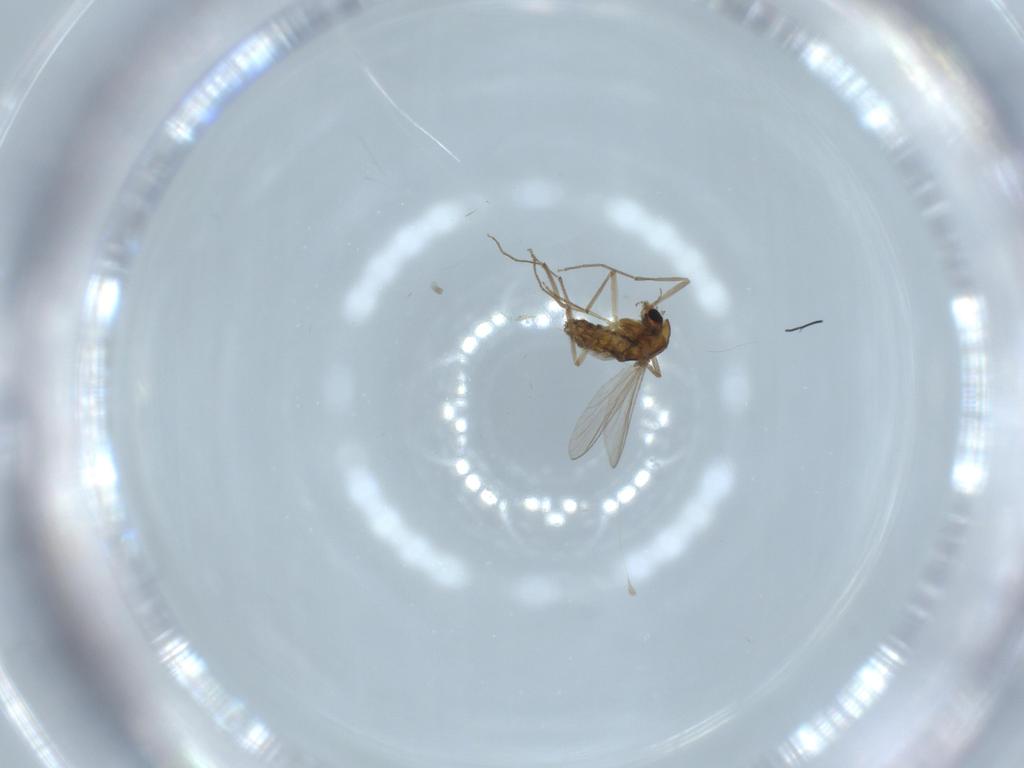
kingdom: Animalia
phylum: Arthropoda
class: Insecta
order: Diptera
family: Chironomidae
